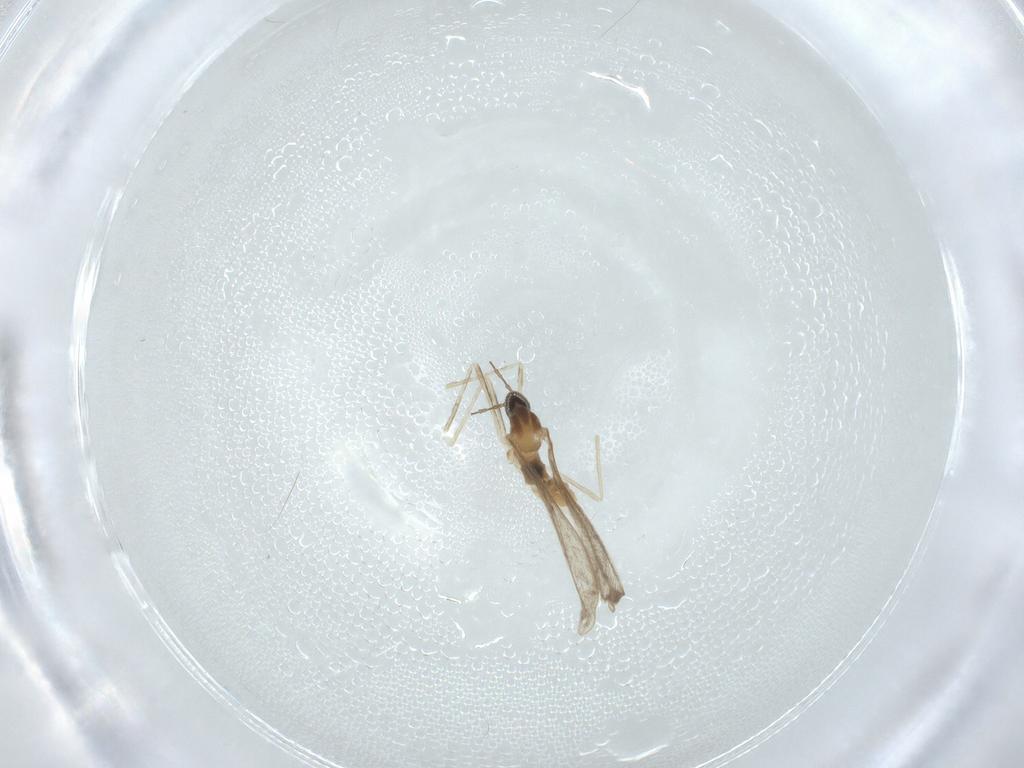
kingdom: Animalia
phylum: Arthropoda
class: Insecta
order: Diptera
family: Cecidomyiidae
